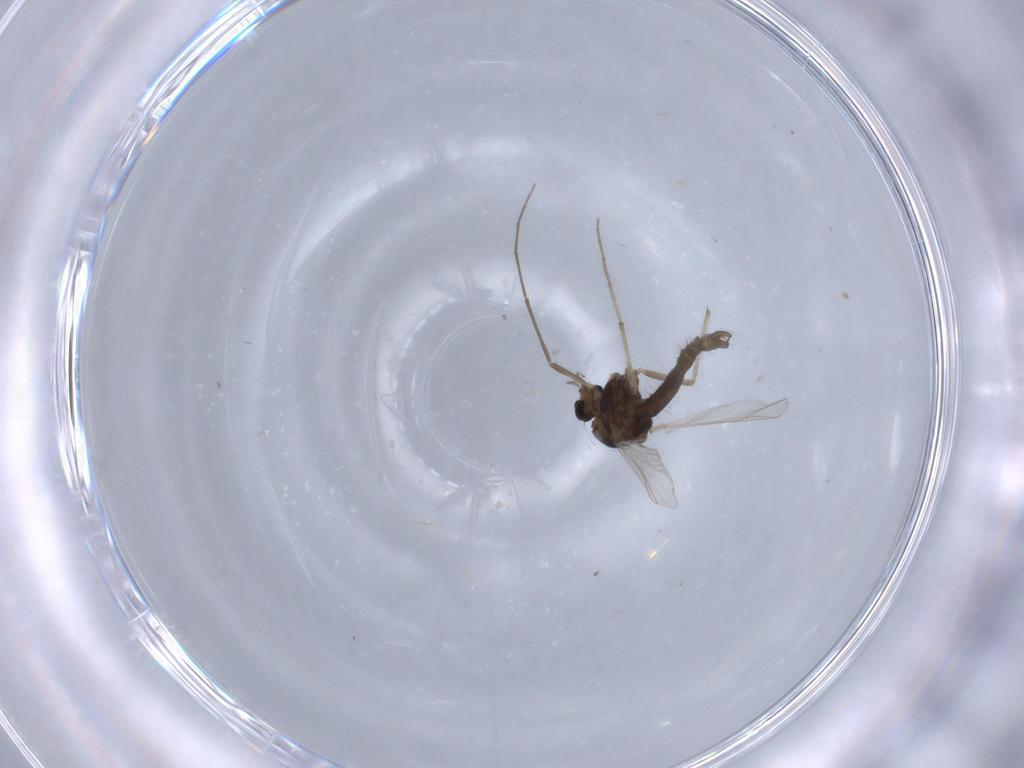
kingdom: Animalia
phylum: Arthropoda
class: Insecta
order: Diptera
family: Chironomidae
